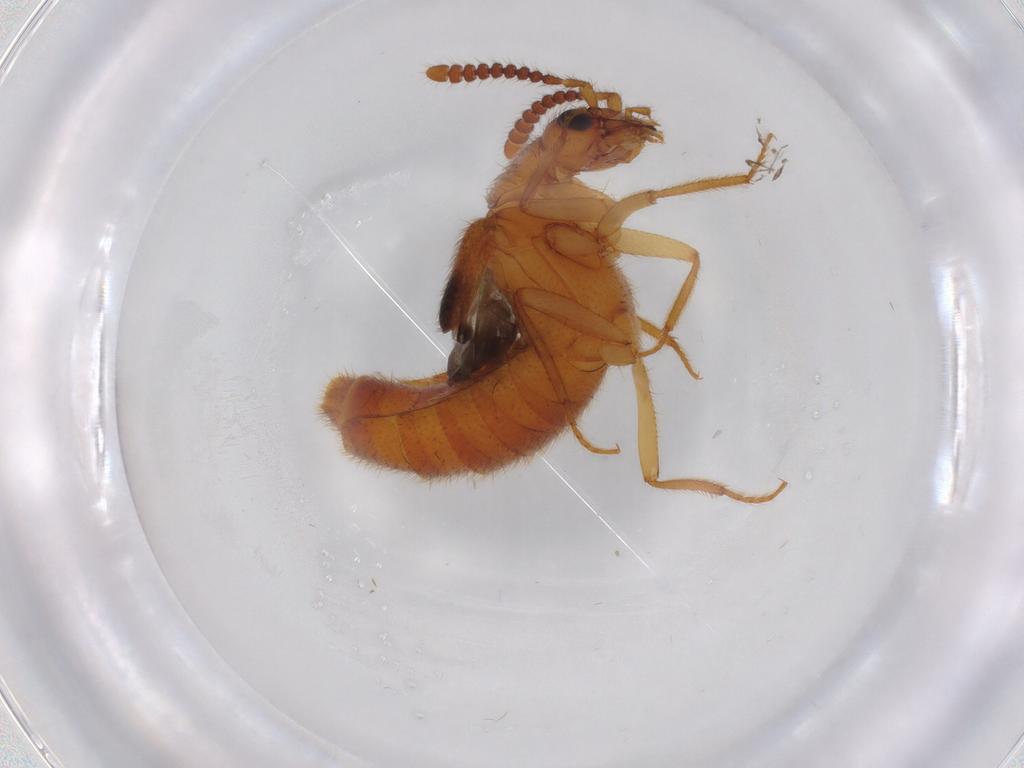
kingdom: Animalia
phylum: Arthropoda
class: Insecta
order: Coleoptera
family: Staphylinidae
